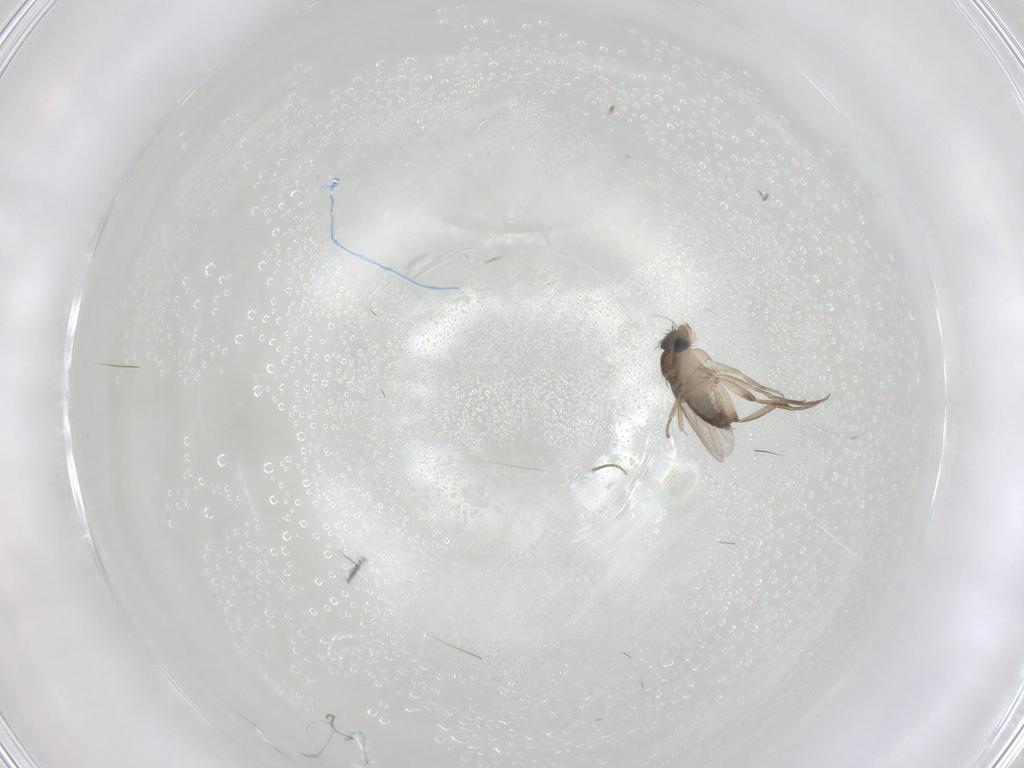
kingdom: Animalia
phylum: Arthropoda
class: Insecta
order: Diptera
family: Phoridae
